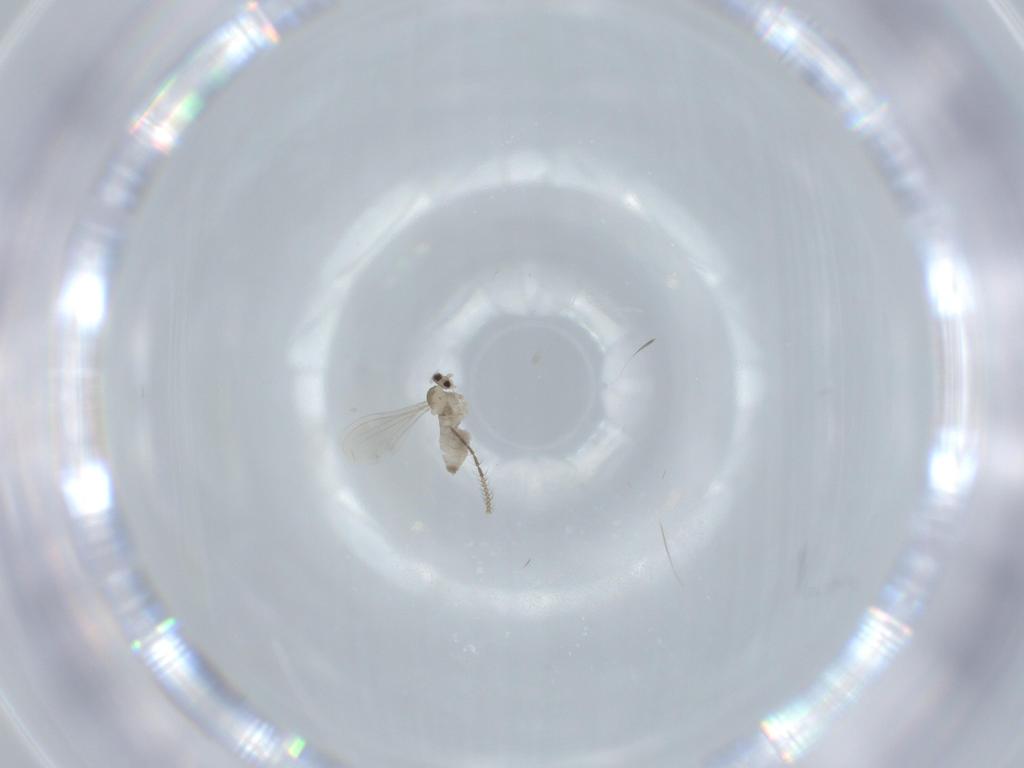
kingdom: Animalia
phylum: Arthropoda
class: Insecta
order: Diptera
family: Cecidomyiidae
